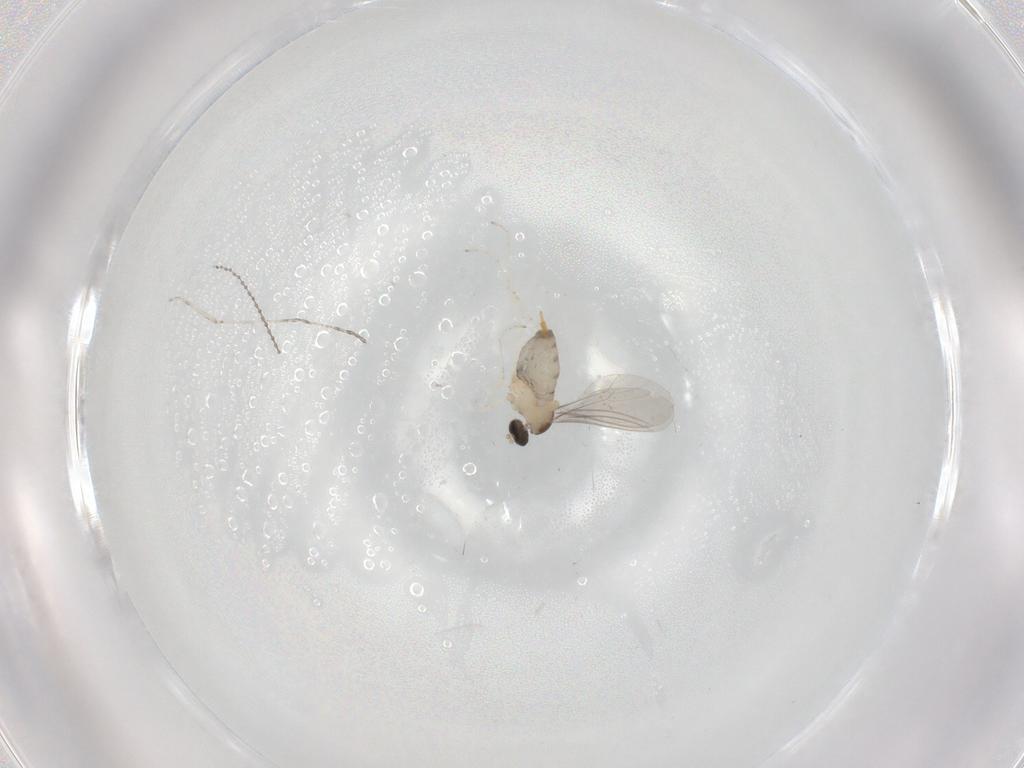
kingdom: Animalia
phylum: Arthropoda
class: Insecta
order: Diptera
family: Cecidomyiidae
